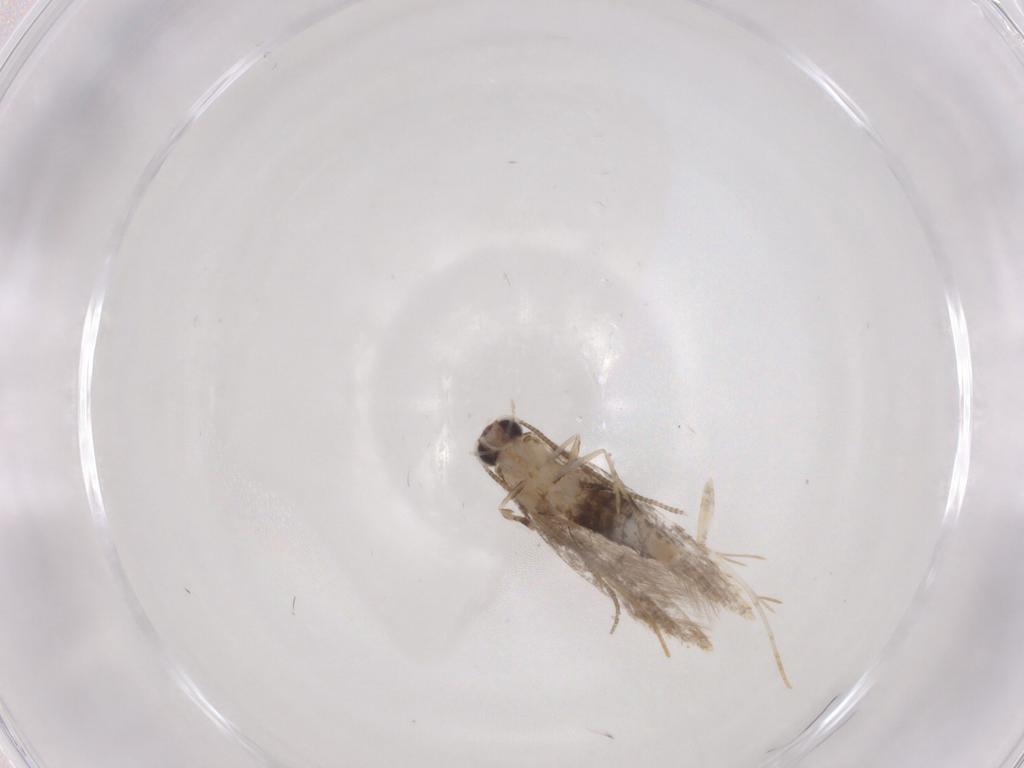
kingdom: Animalia
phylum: Arthropoda
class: Insecta
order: Lepidoptera
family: Tineidae
